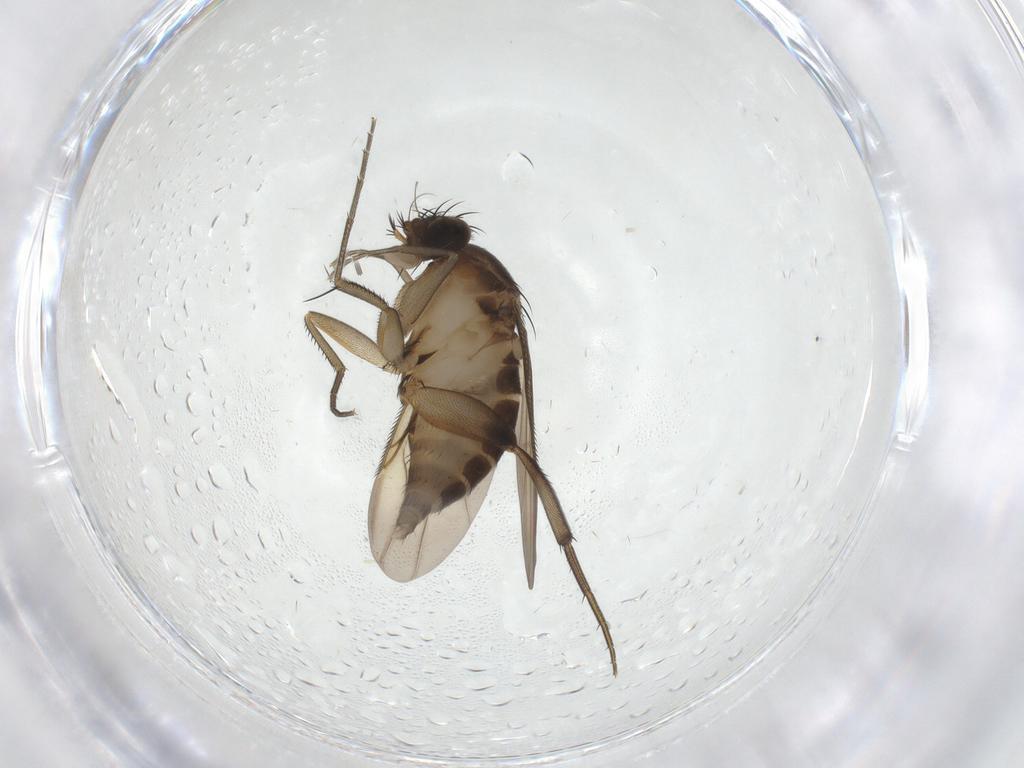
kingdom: Animalia
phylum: Arthropoda
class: Insecta
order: Diptera
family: Phoridae
